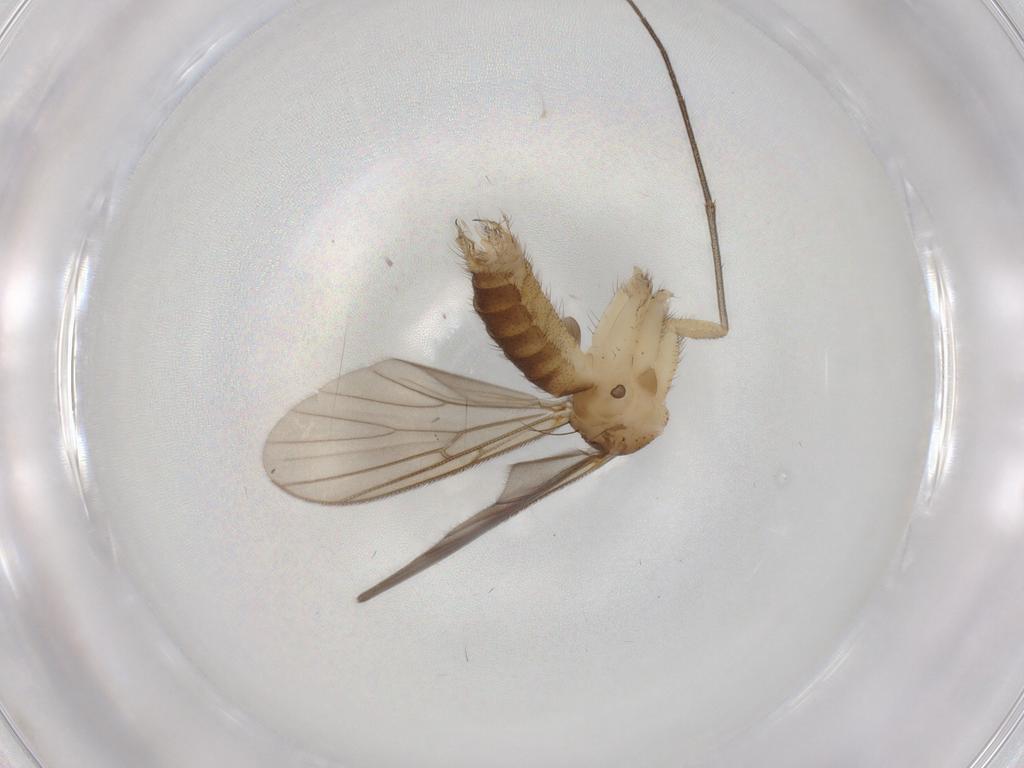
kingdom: Animalia
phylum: Arthropoda
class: Insecta
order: Diptera
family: Mycetophilidae
